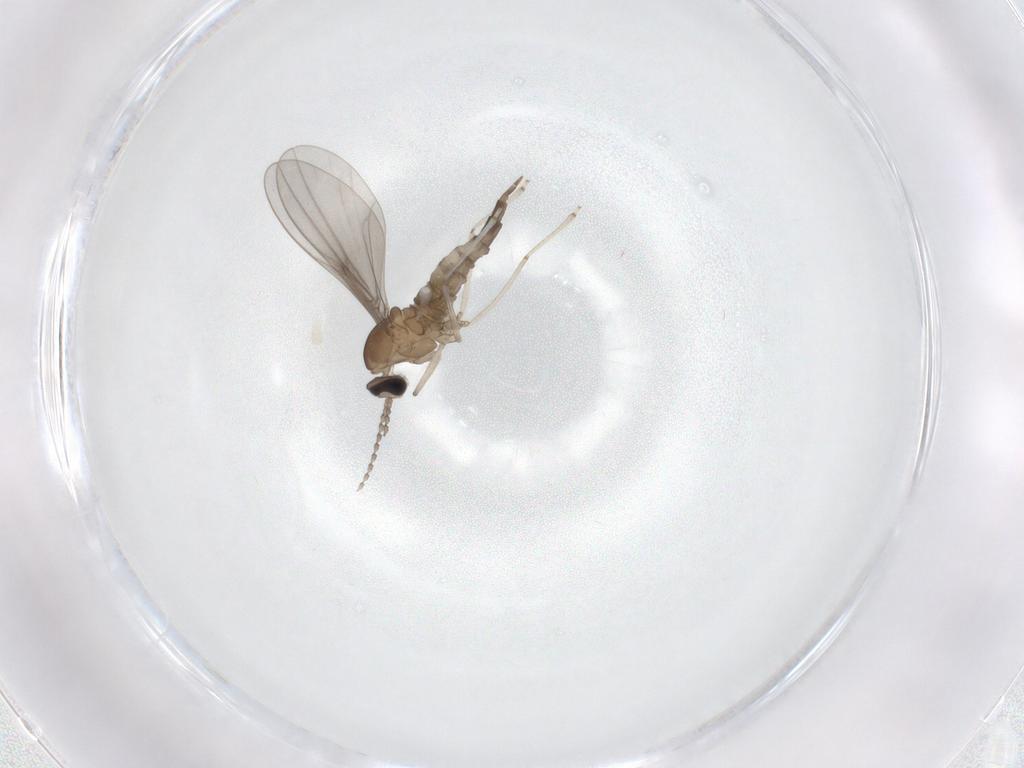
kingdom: Animalia
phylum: Arthropoda
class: Insecta
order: Diptera
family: Cecidomyiidae
